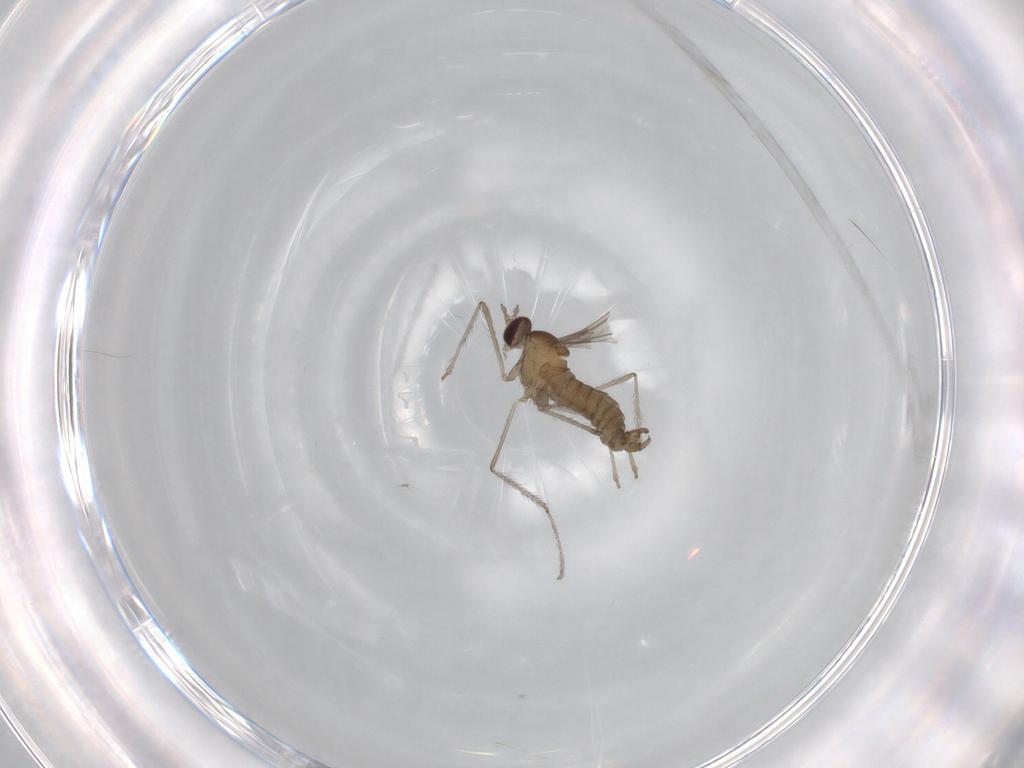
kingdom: Animalia
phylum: Arthropoda
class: Insecta
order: Diptera
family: Cecidomyiidae
